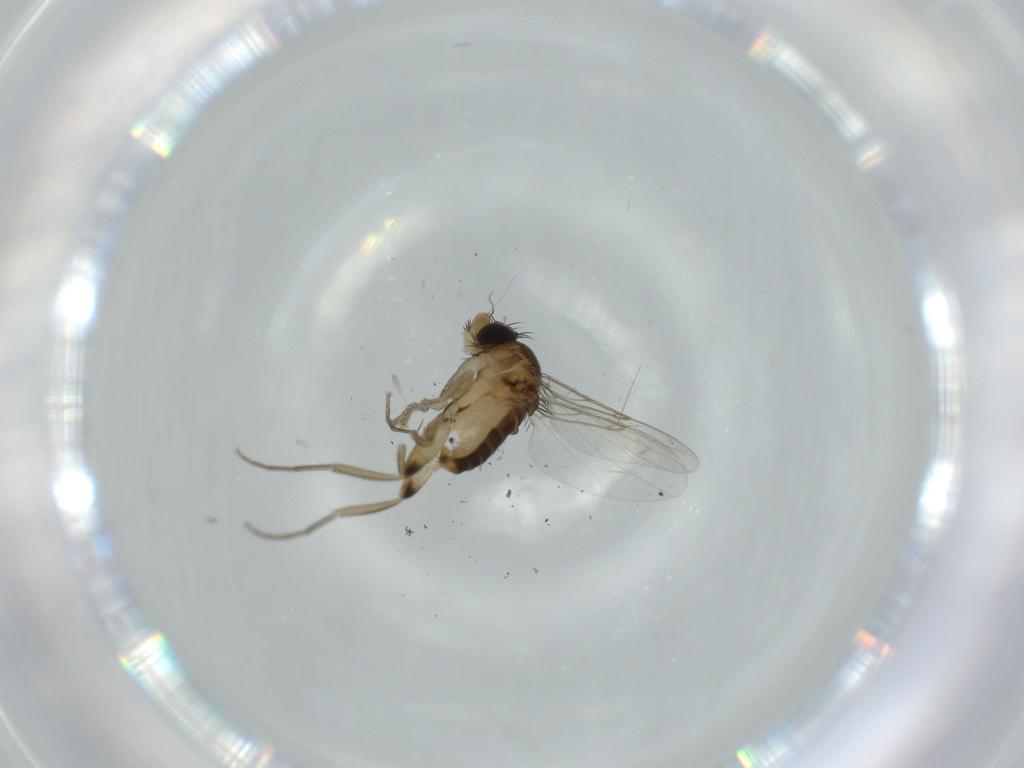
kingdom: Animalia
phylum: Arthropoda
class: Insecta
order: Diptera
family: Phoridae
